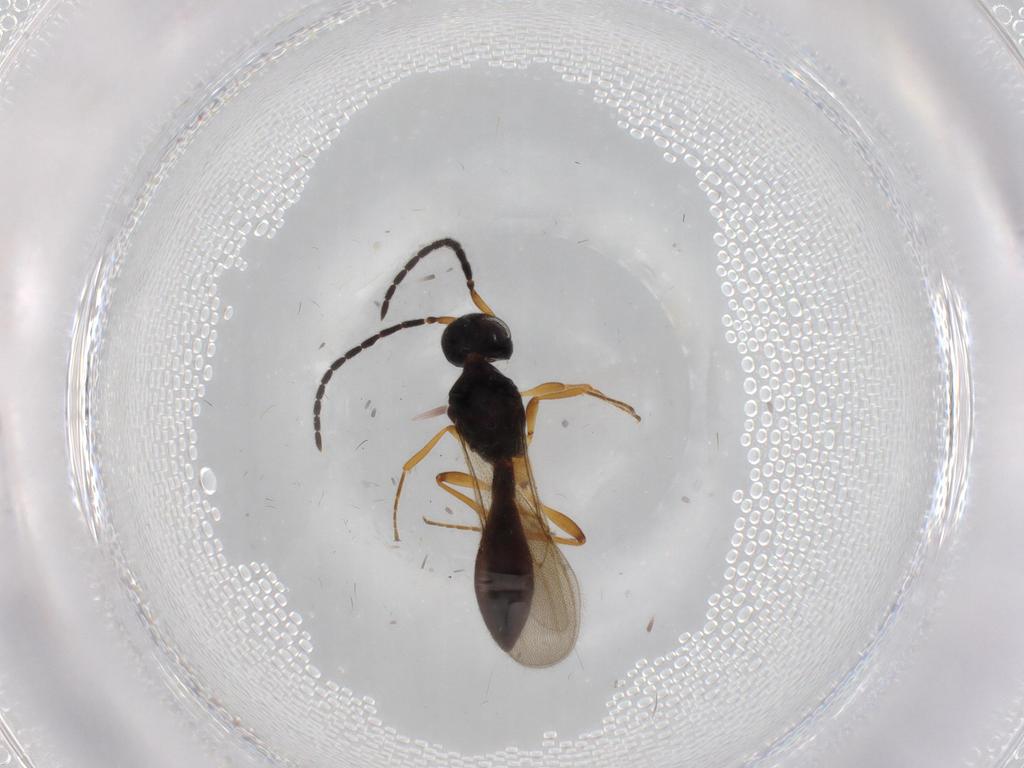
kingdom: Animalia
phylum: Arthropoda
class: Insecta
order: Hymenoptera
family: Scelionidae
